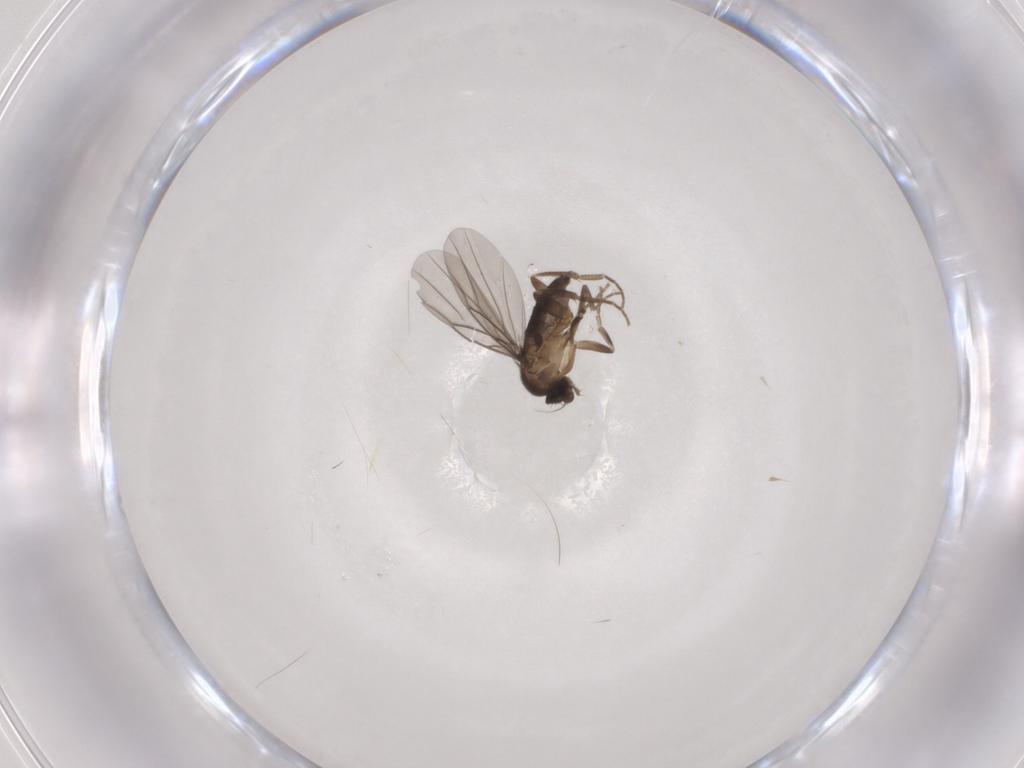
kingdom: Animalia
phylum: Arthropoda
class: Insecta
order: Diptera
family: Phoridae
